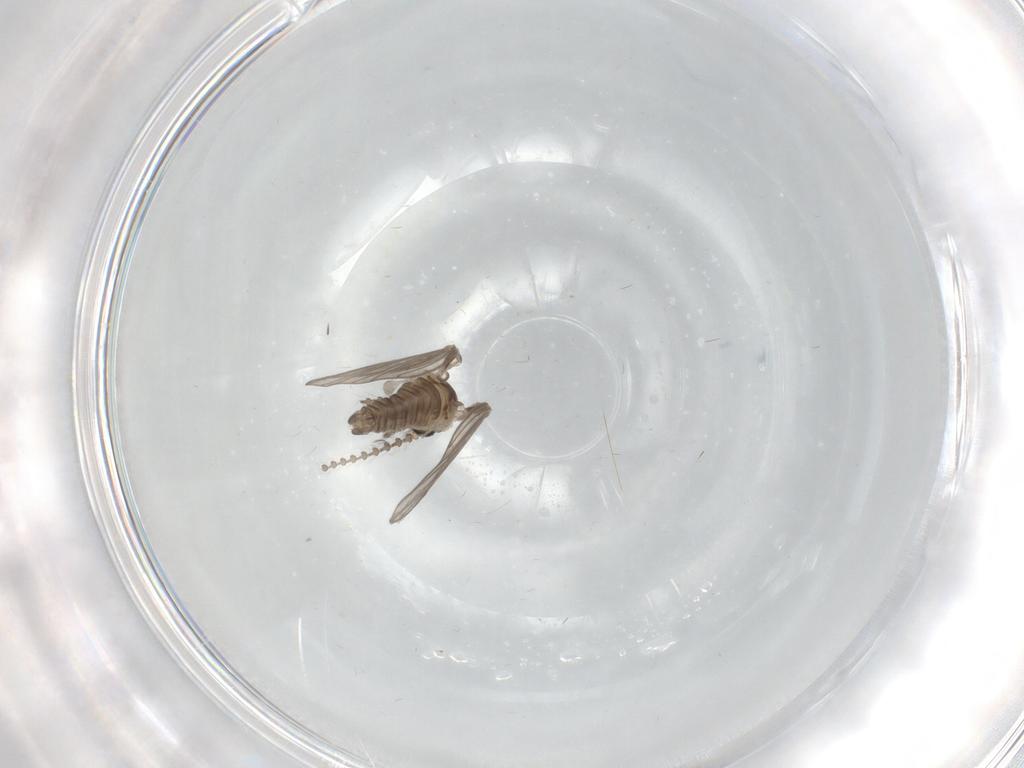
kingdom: Animalia
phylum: Arthropoda
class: Insecta
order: Diptera
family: Psychodidae
